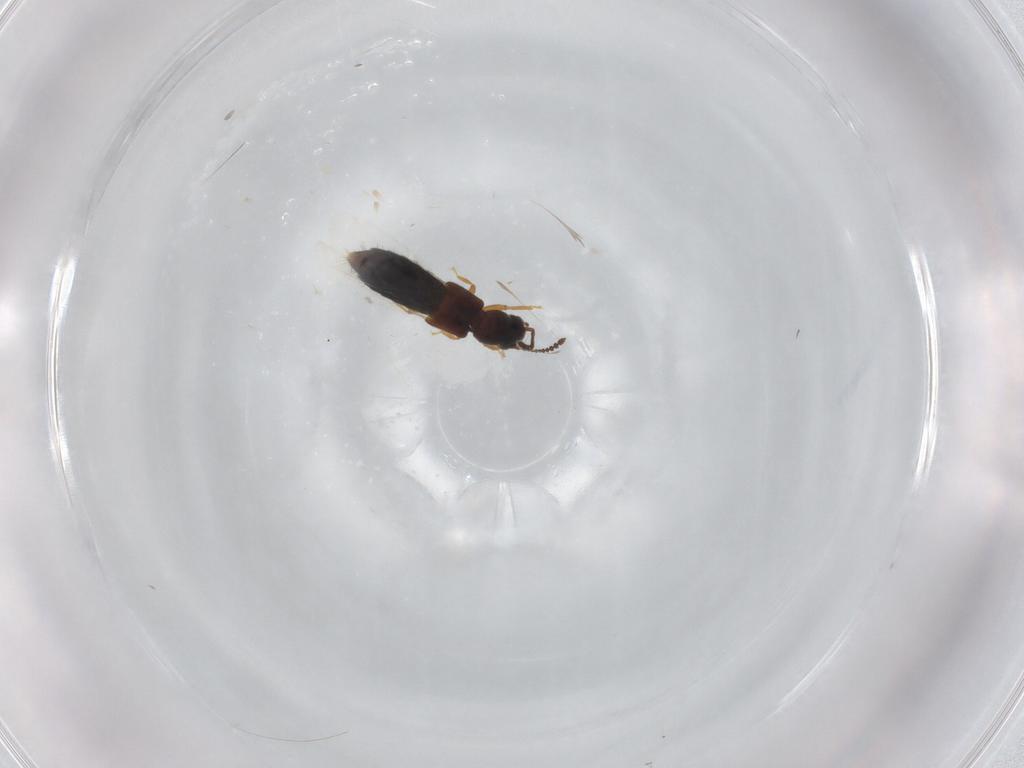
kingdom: Animalia
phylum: Arthropoda
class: Insecta
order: Coleoptera
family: Staphylinidae
